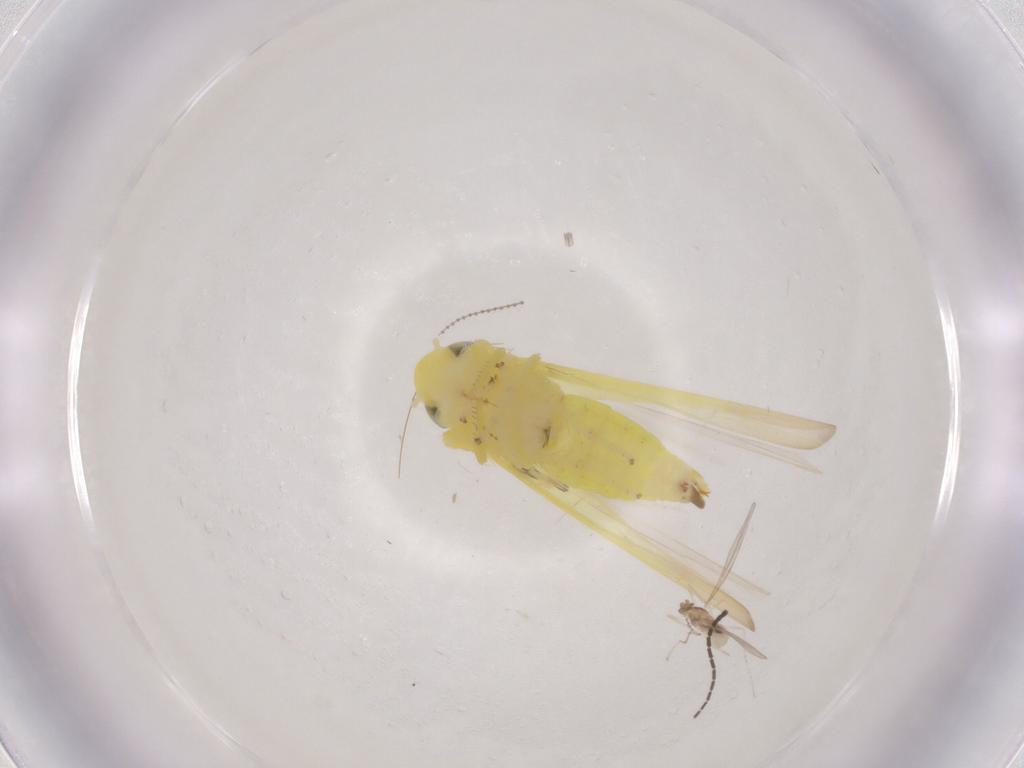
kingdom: Animalia
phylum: Arthropoda
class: Insecta
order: Hemiptera
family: Cicadellidae
